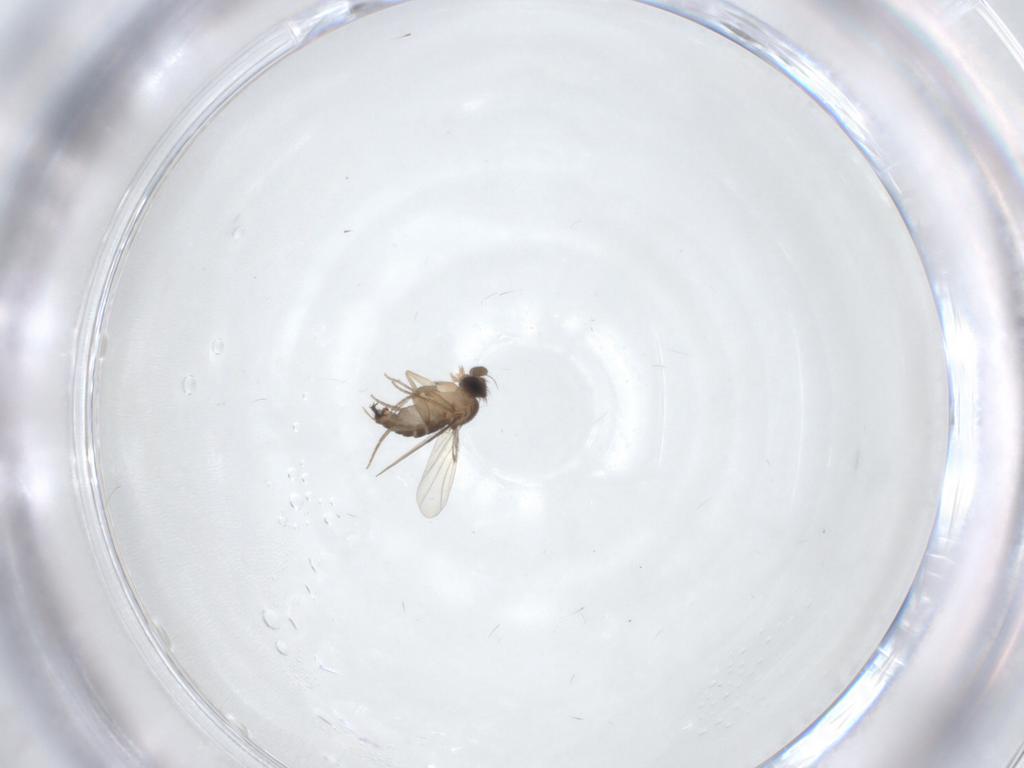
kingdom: Animalia
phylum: Arthropoda
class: Insecta
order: Diptera
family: Phoridae
